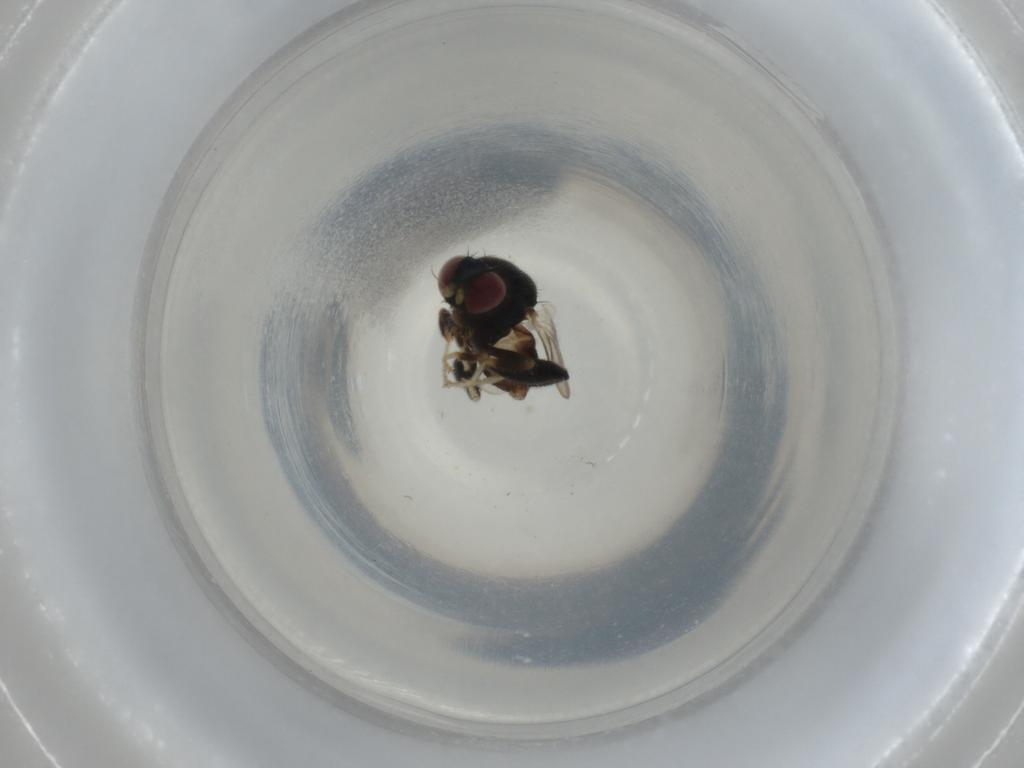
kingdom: Animalia
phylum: Arthropoda
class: Insecta
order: Diptera
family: Chloropidae
